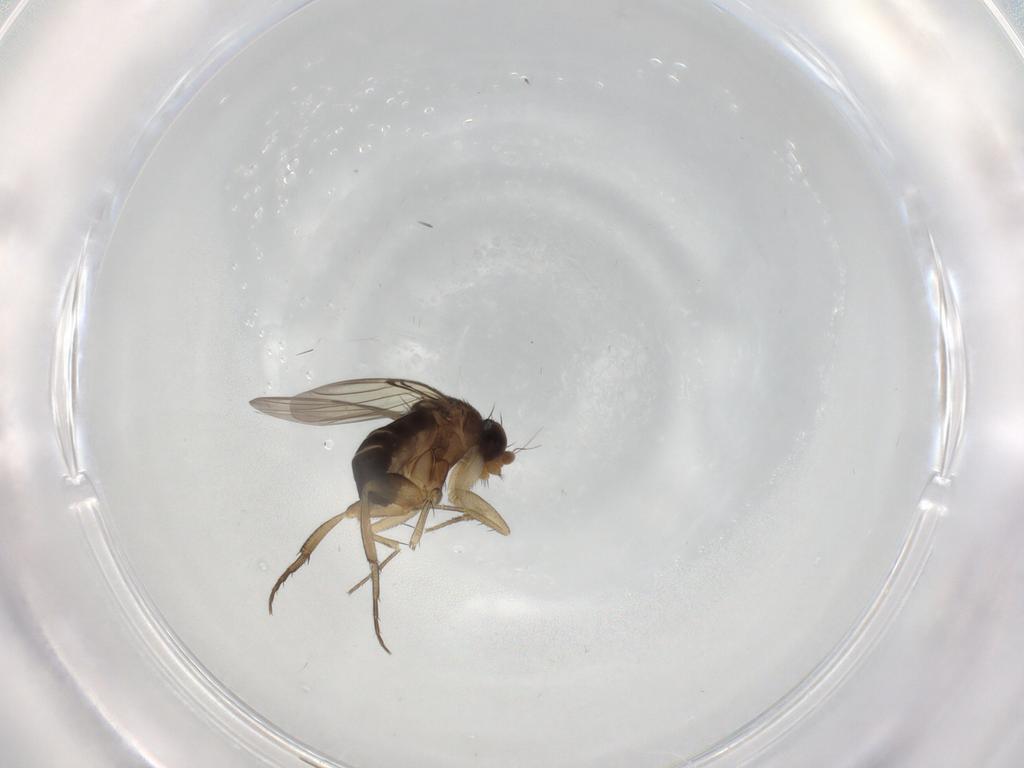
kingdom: Animalia
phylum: Arthropoda
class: Insecta
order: Diptera
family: Phoridae
